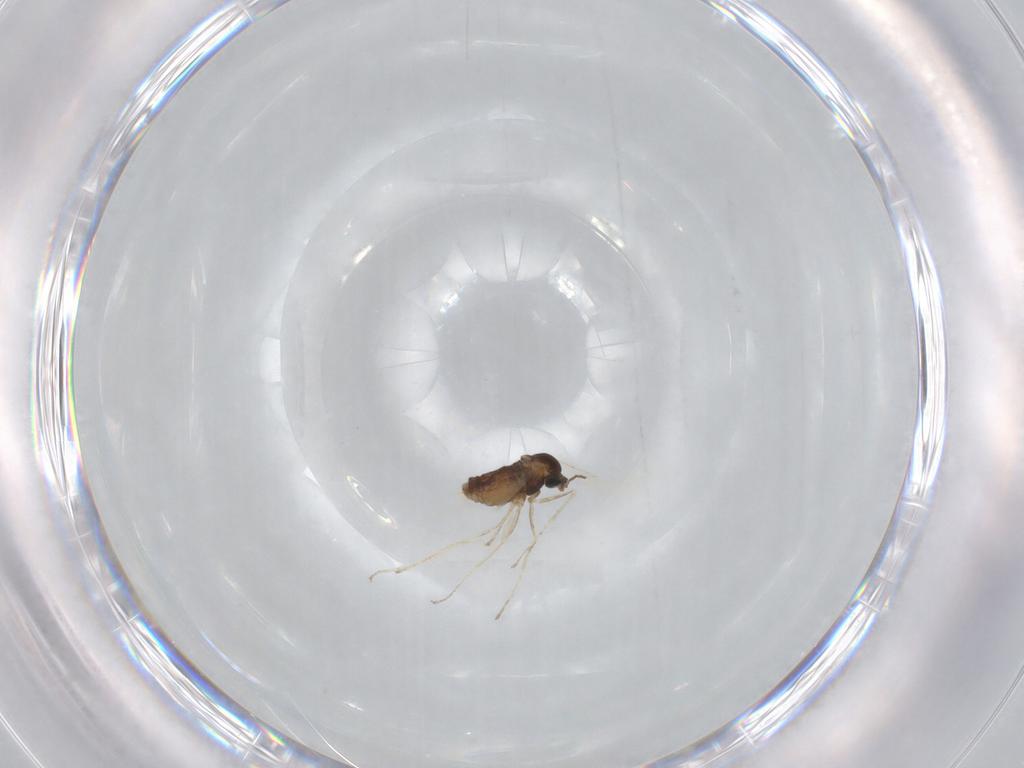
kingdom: Animalia
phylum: Arthropoda
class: Insecta
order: Diptera
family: Cecidomyiidae
